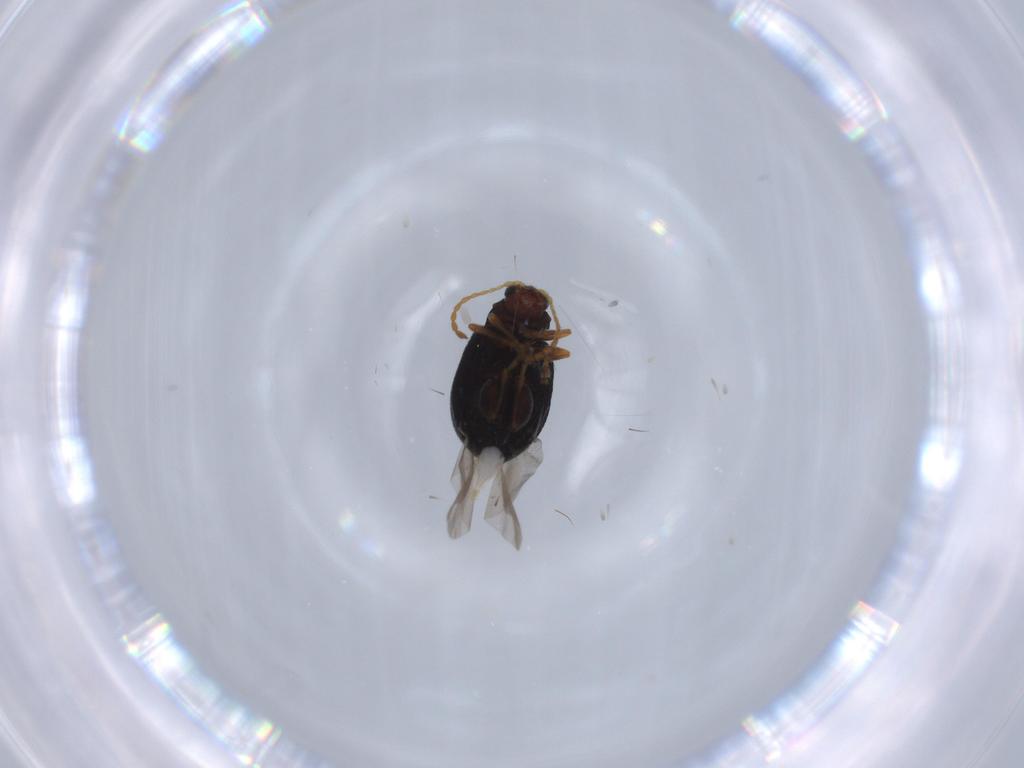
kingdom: Animalia
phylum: Arthropoda
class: Insecta
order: Coleoptera
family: Chrysomelidae
